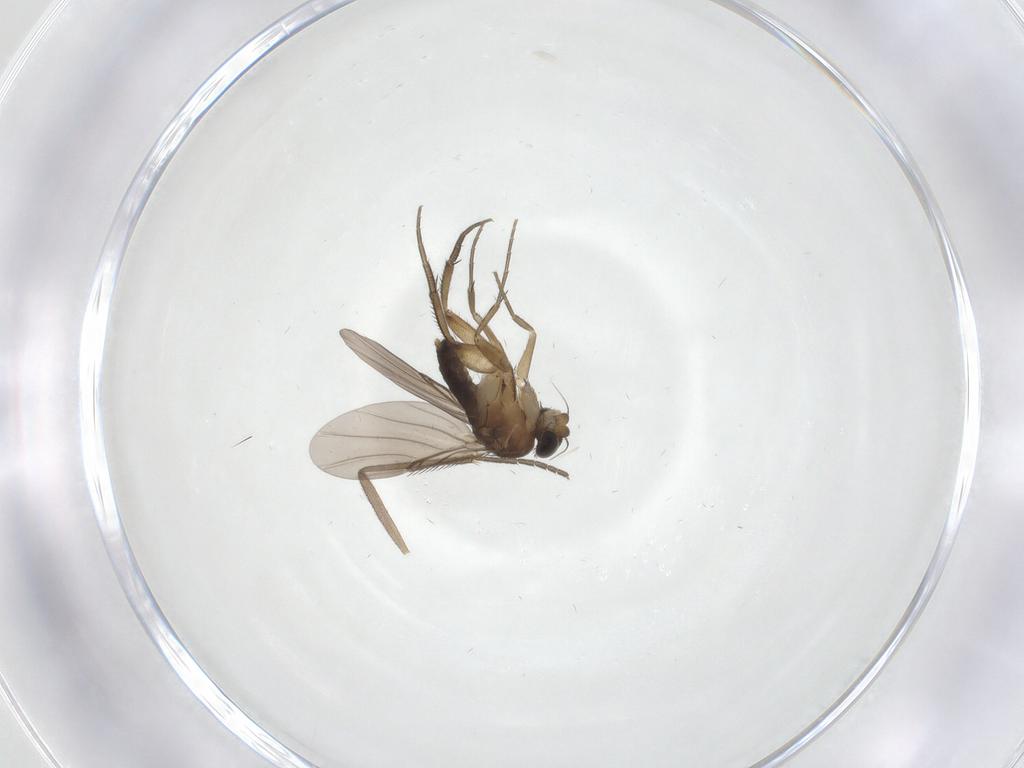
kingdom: Animalia
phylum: Arthropoda
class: Insecta
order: Diptera
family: Phoridae
